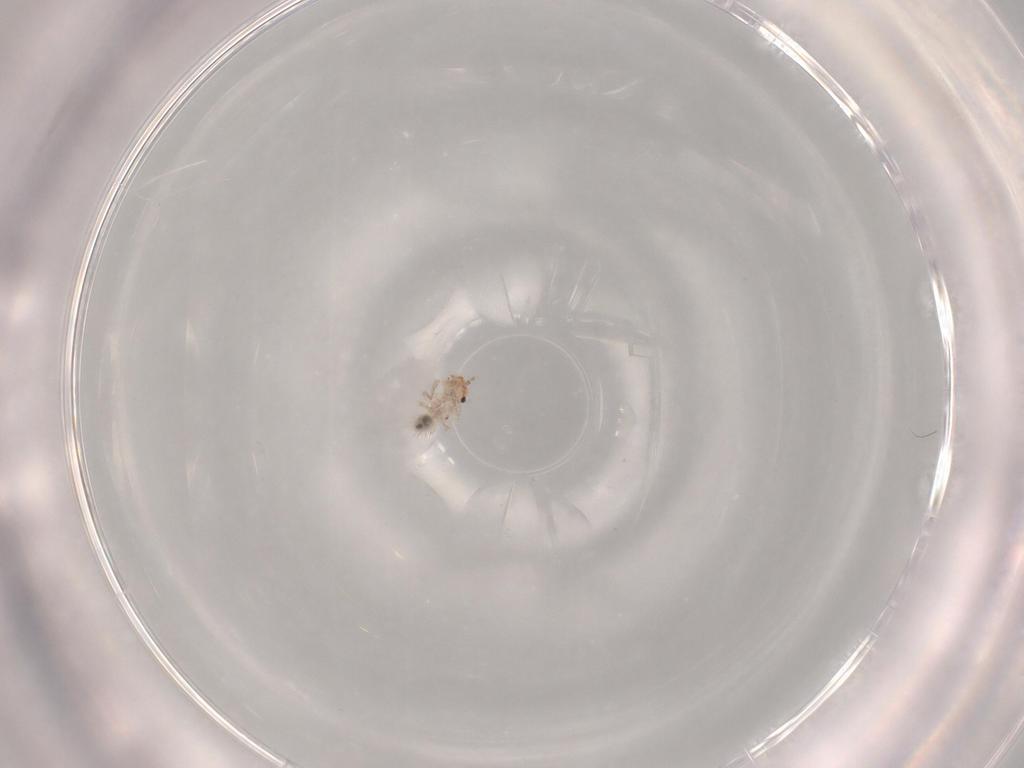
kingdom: Animalia
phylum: Arthropoda
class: Insecta
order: Psocodea
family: Lepidopsocidae
